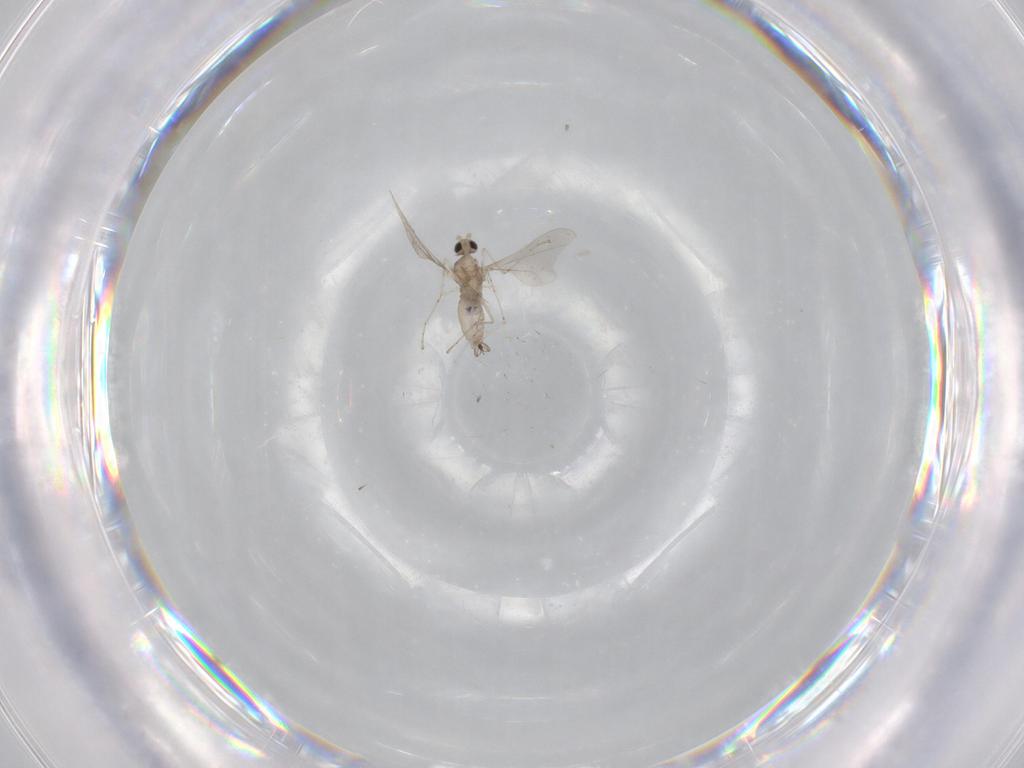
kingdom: Animalia
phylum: Arthropoda
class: Insecta
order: Diptera
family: Cecidomyiidae
